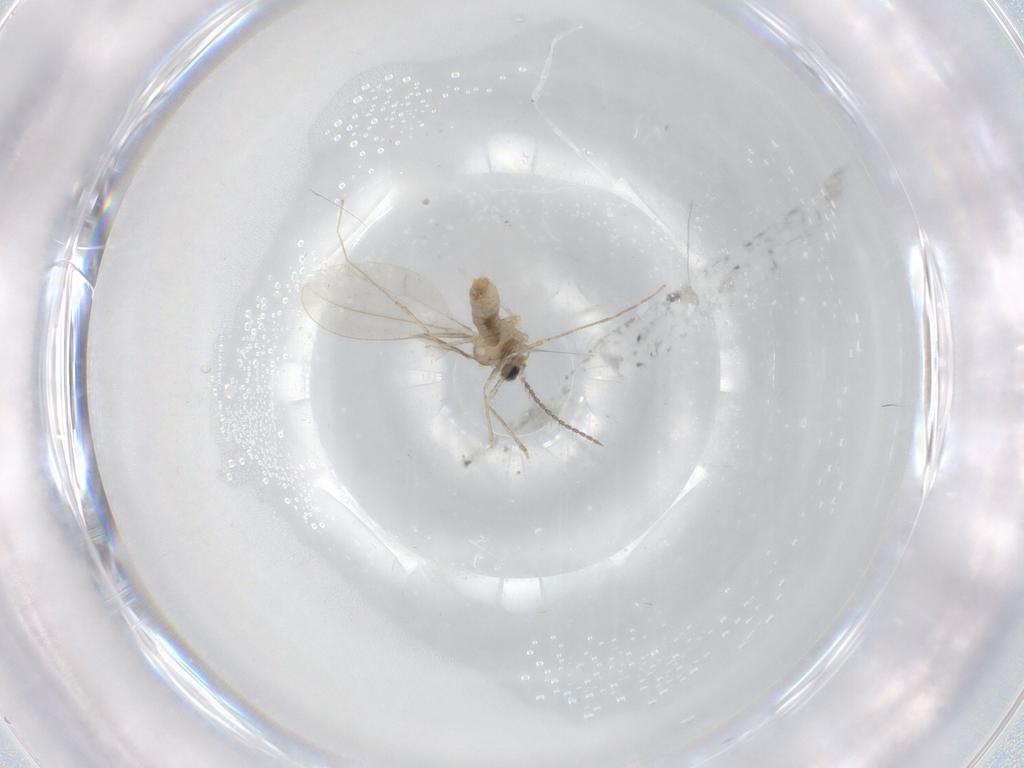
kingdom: Animalia
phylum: Arthropoda
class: Insecta
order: Diptera
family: Cecidomyiidae
